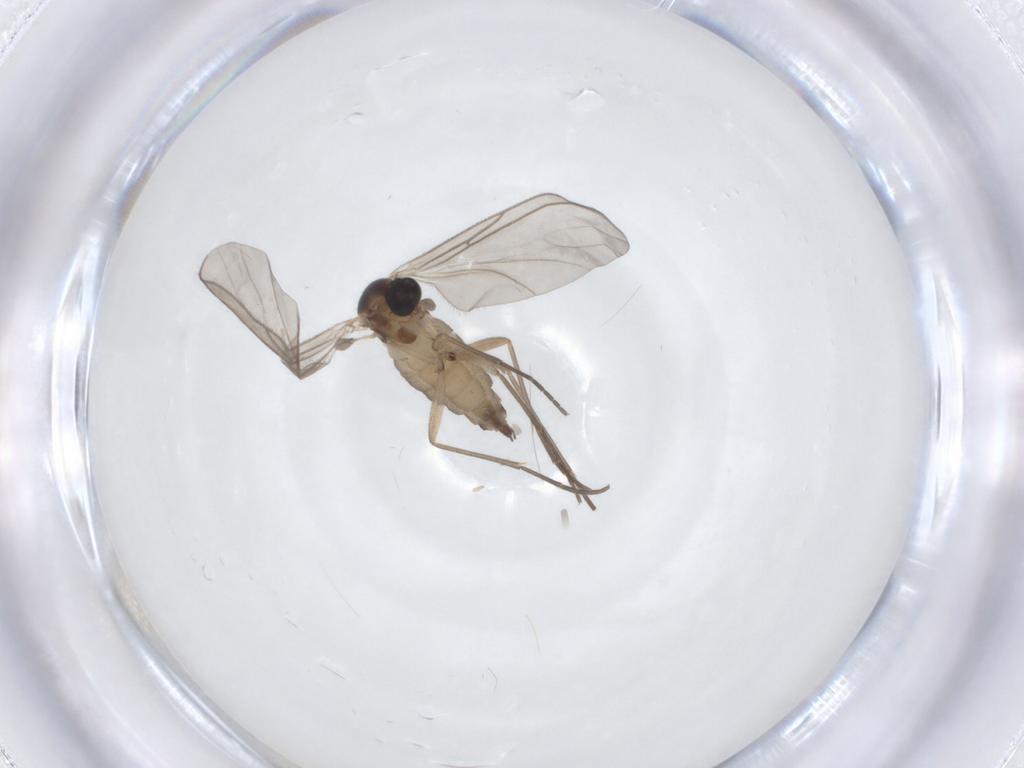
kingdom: Animalia
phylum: Arthropoda
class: Insecta
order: Diptera
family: Sciaridae
